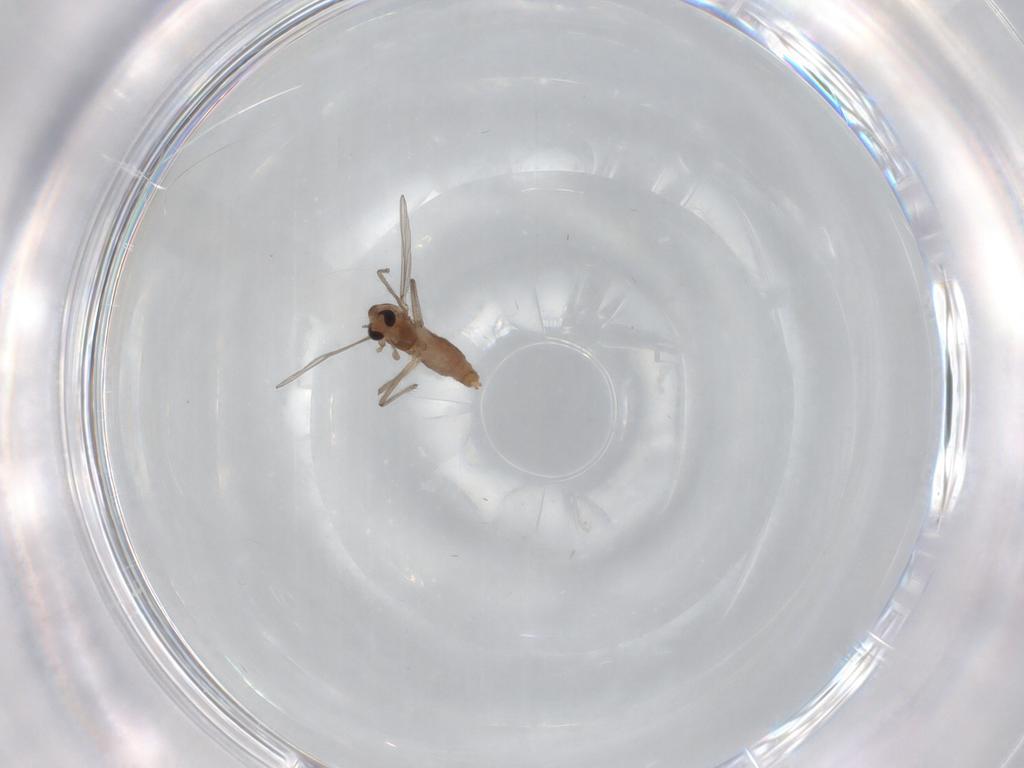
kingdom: Animalia
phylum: Arthropoda
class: Insecta
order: Diptera
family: Chironomidae
